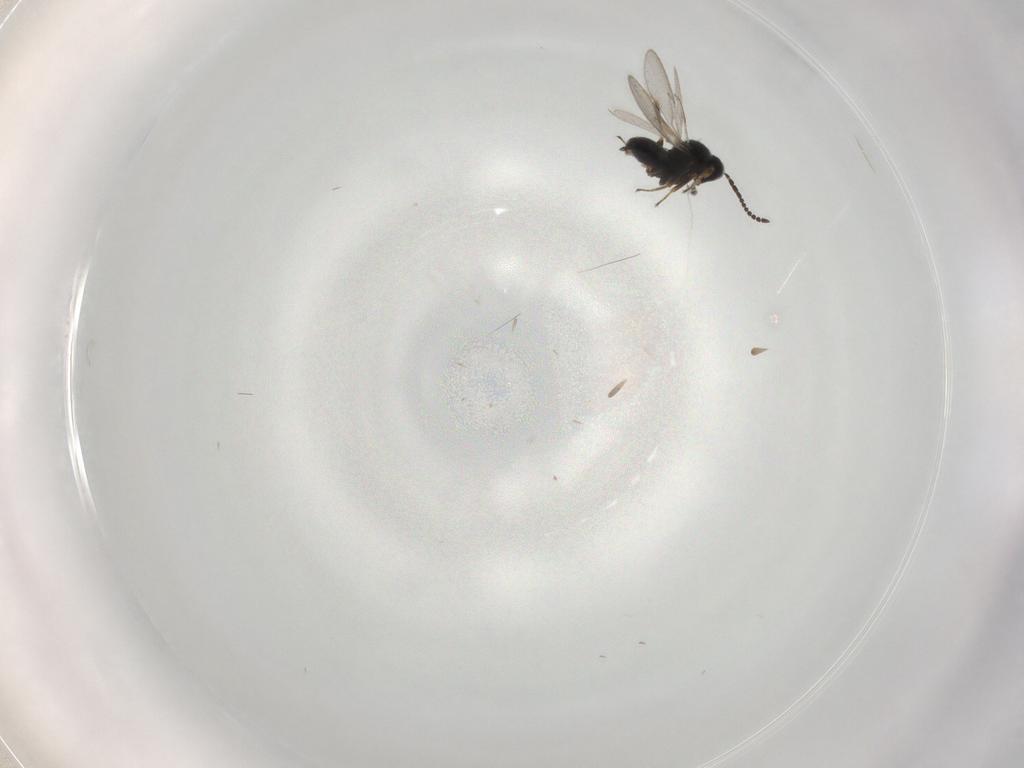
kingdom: Animalia
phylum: Arthropoda
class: Insecta
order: Hymenoptera
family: Scelionidae
